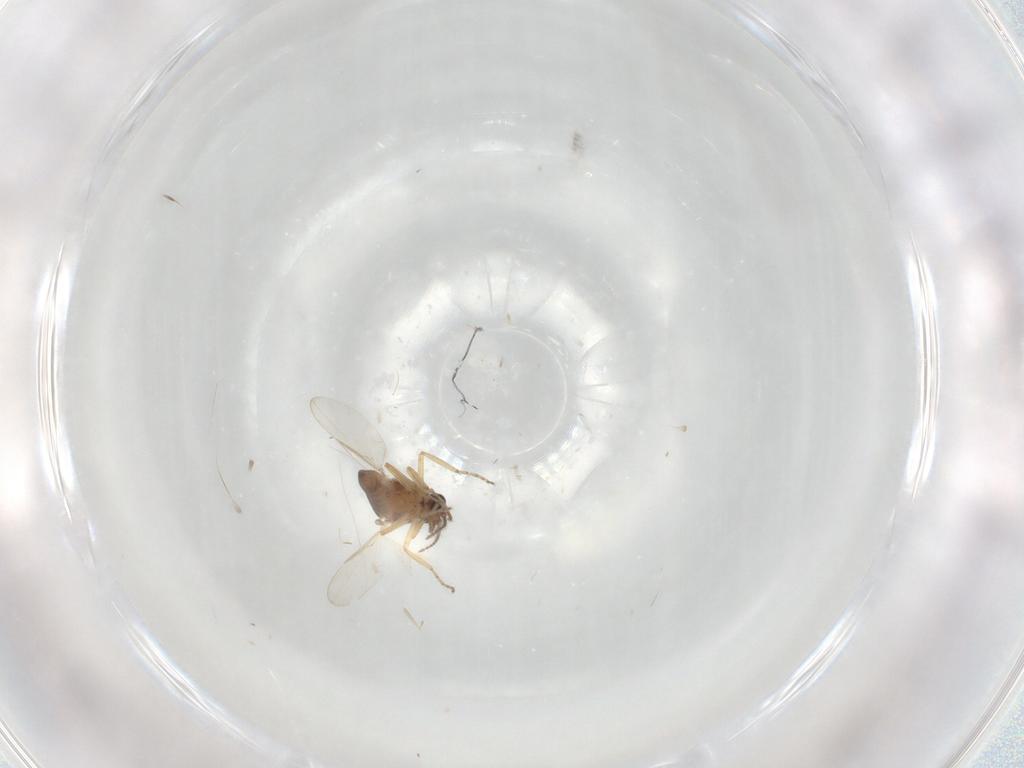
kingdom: Animalia
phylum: Arthropoda
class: Insecta
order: Diptera
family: Ceratopogonidae
